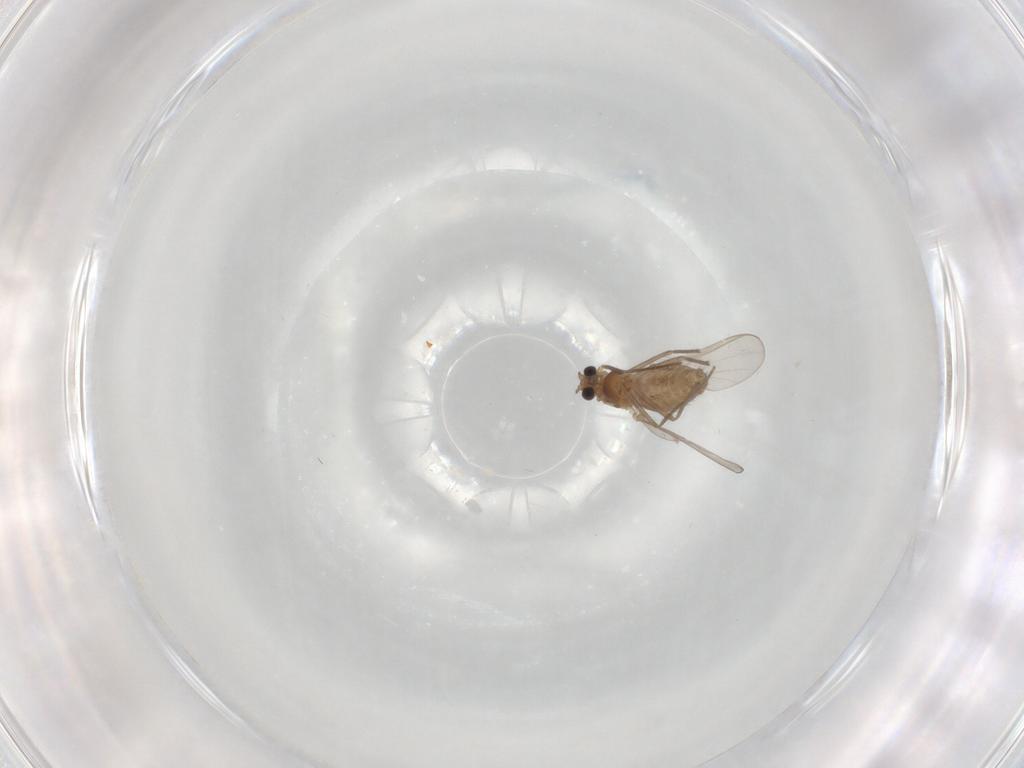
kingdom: Animalia
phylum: Arthropoda
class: Insecta
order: Diptera
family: Chironomidae
